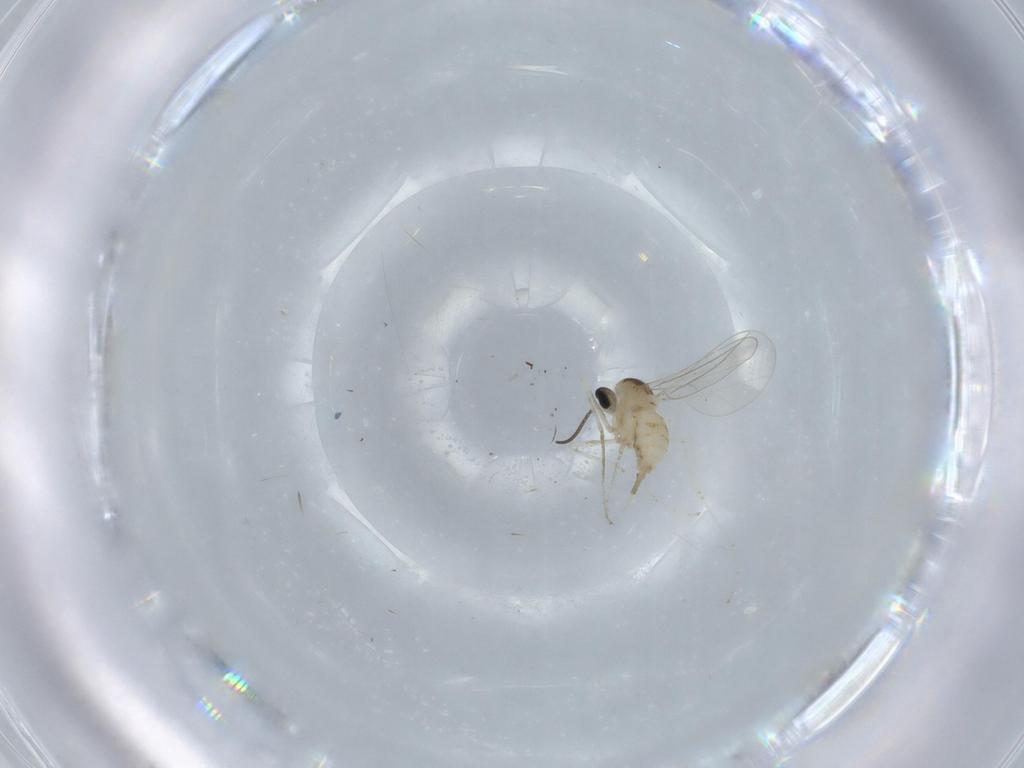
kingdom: Animalia
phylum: Arthropoda
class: Insecta
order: Diptera
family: Cecidomyiidae
